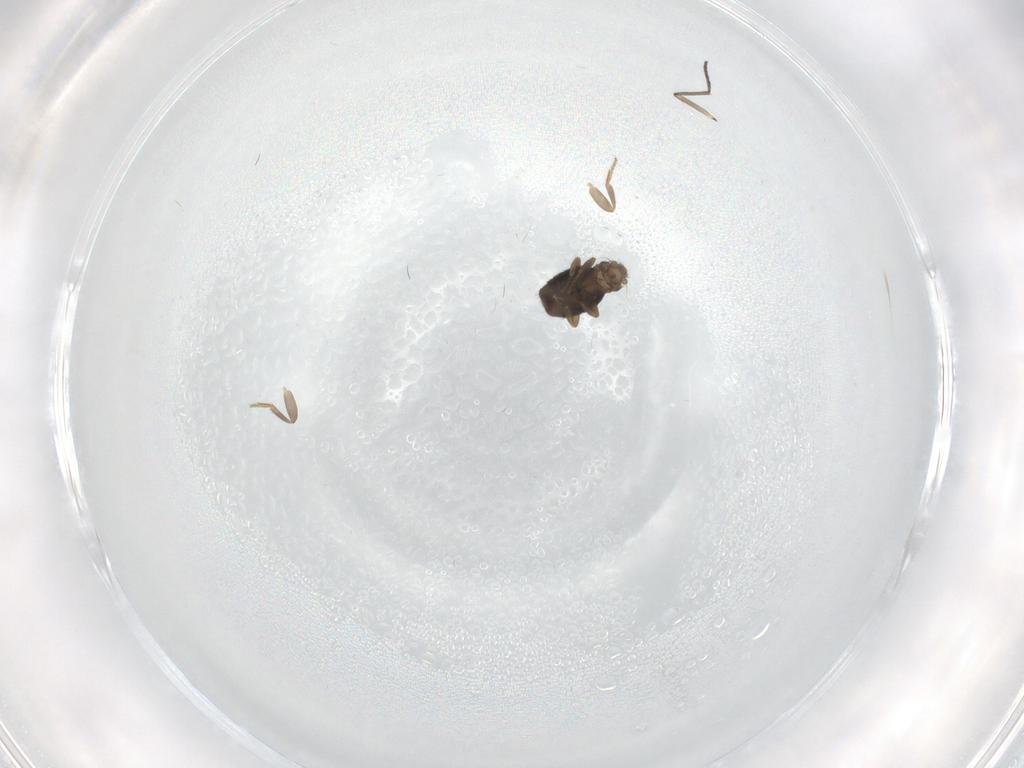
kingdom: Animalia
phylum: Arthropoda
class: Insecta
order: Diptera
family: Phoridae
